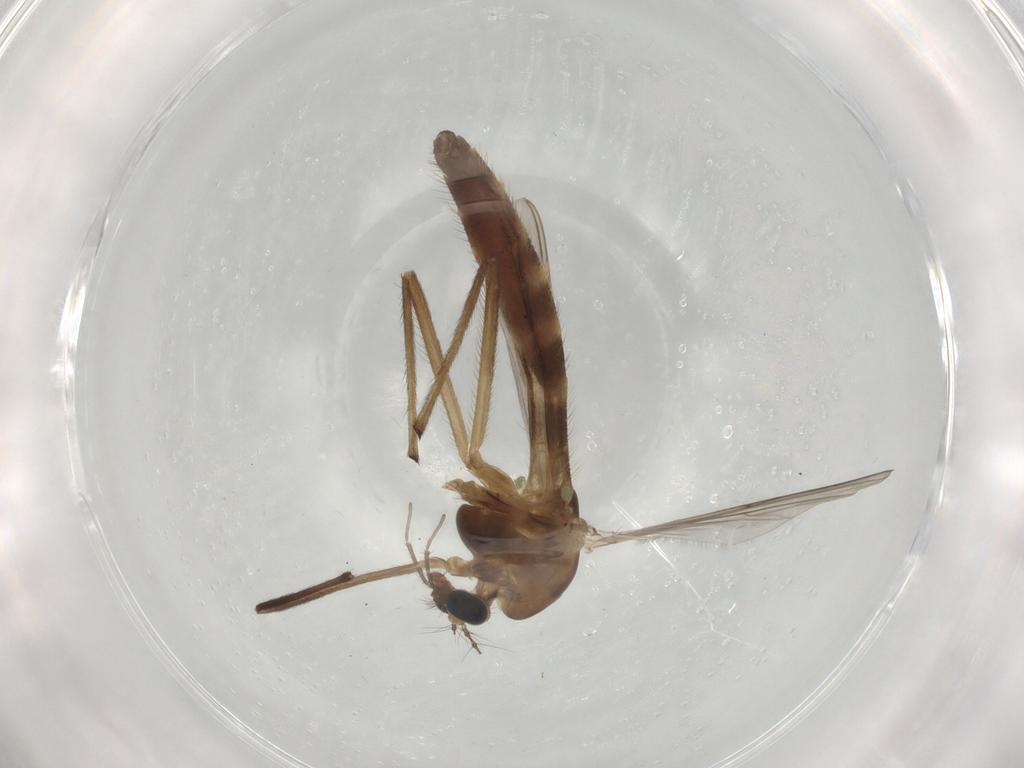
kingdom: Animalia
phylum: Arthropoda
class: Insecta
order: Diptera
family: Chironomidae
